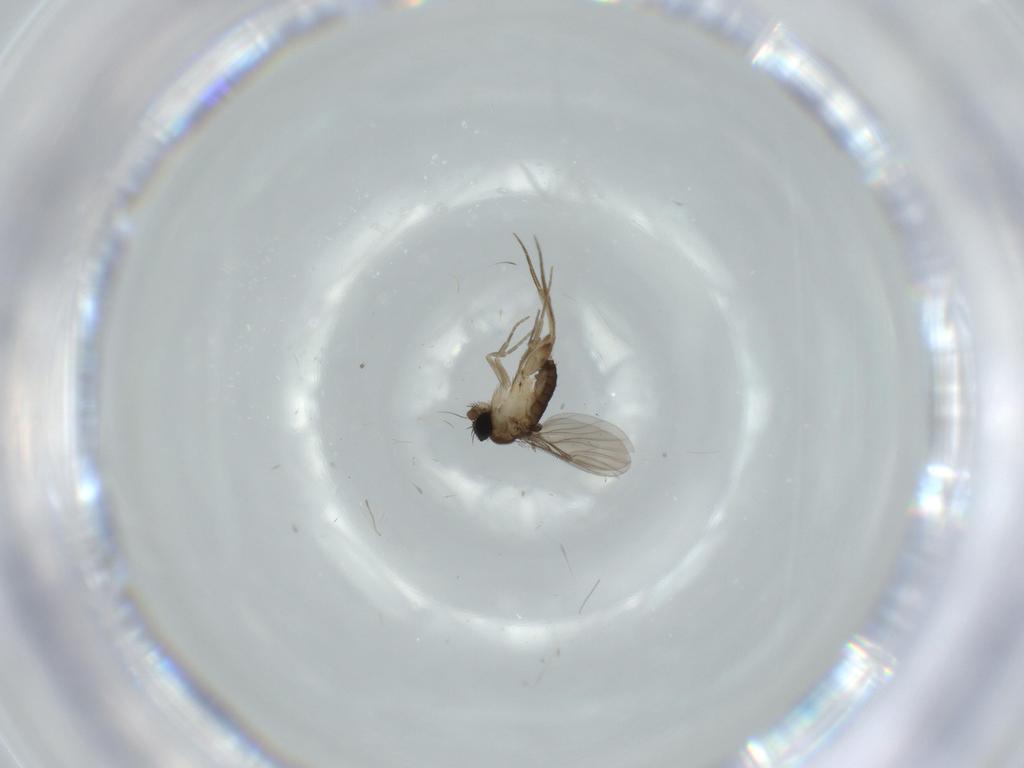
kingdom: Animalia
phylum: Arthropoda
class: Insecta
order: Diptera
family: Phoridae
